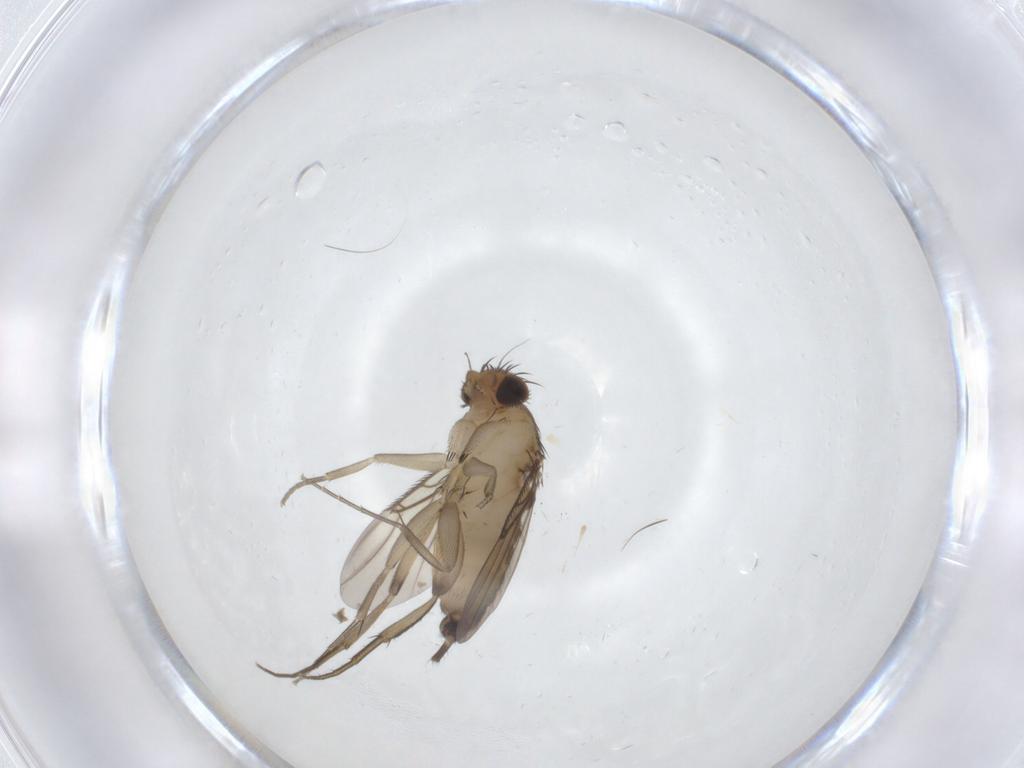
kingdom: Animalia
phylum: Arthropoda
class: Insecta
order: Diptera
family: Phoridae
